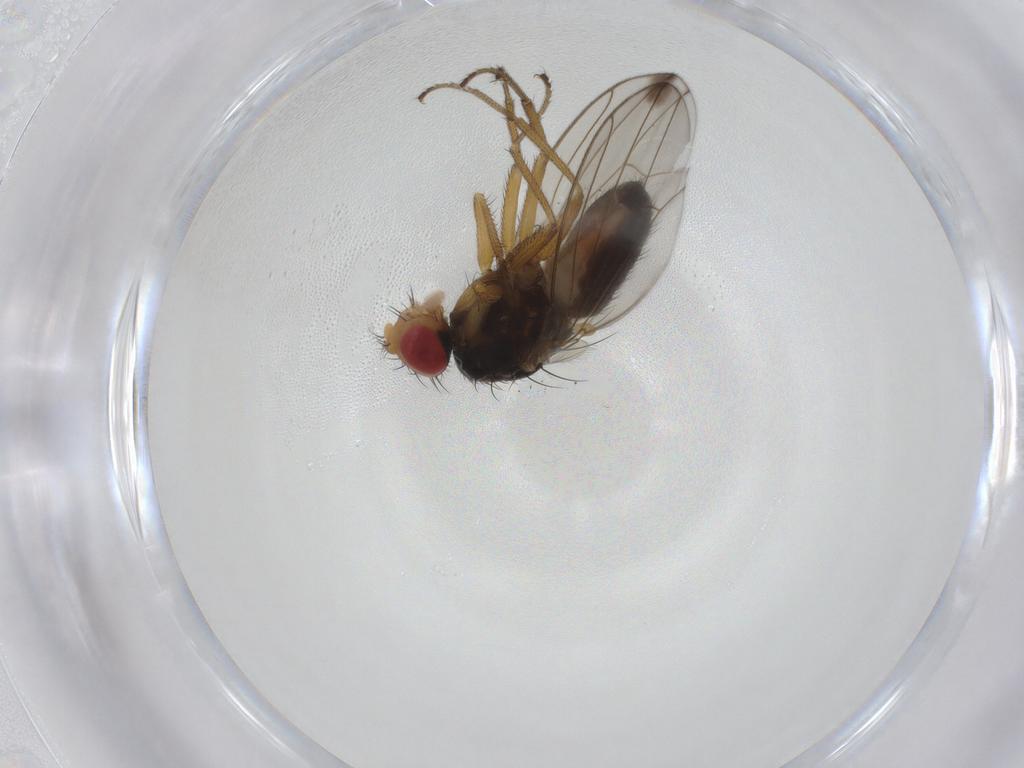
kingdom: Animalia
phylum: Arthropoda
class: Insecta
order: Diptera
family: Drosophilidae
